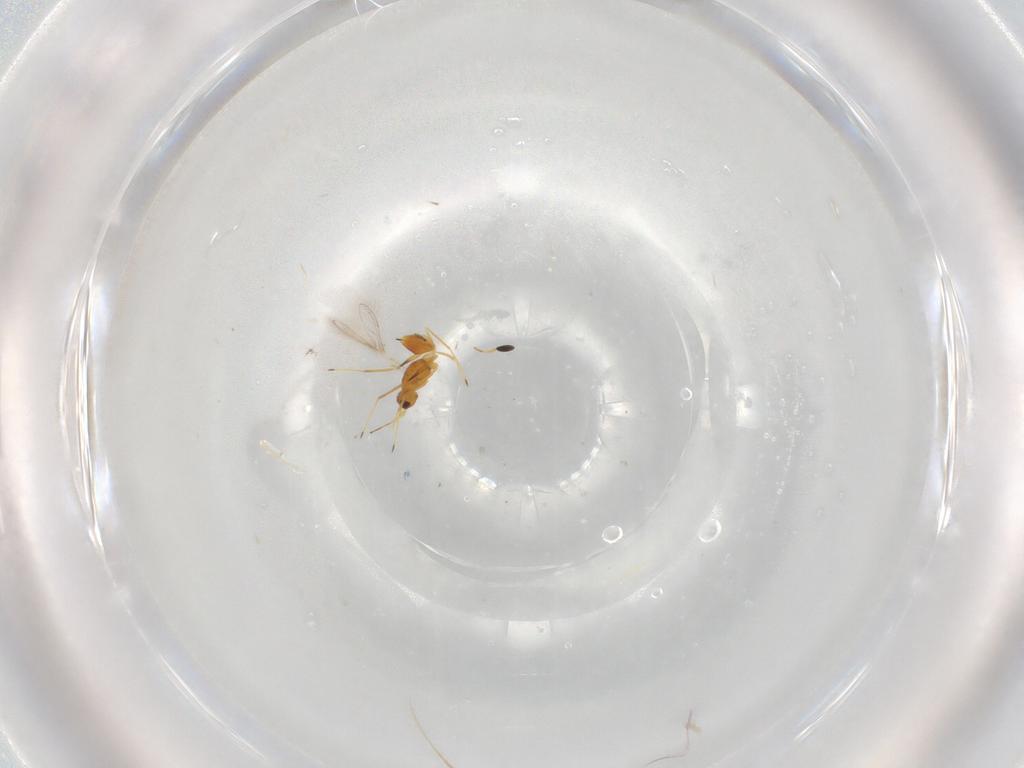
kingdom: Animalia
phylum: Arthropoda
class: Insecta
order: Hymenoptera
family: Mymaridae
